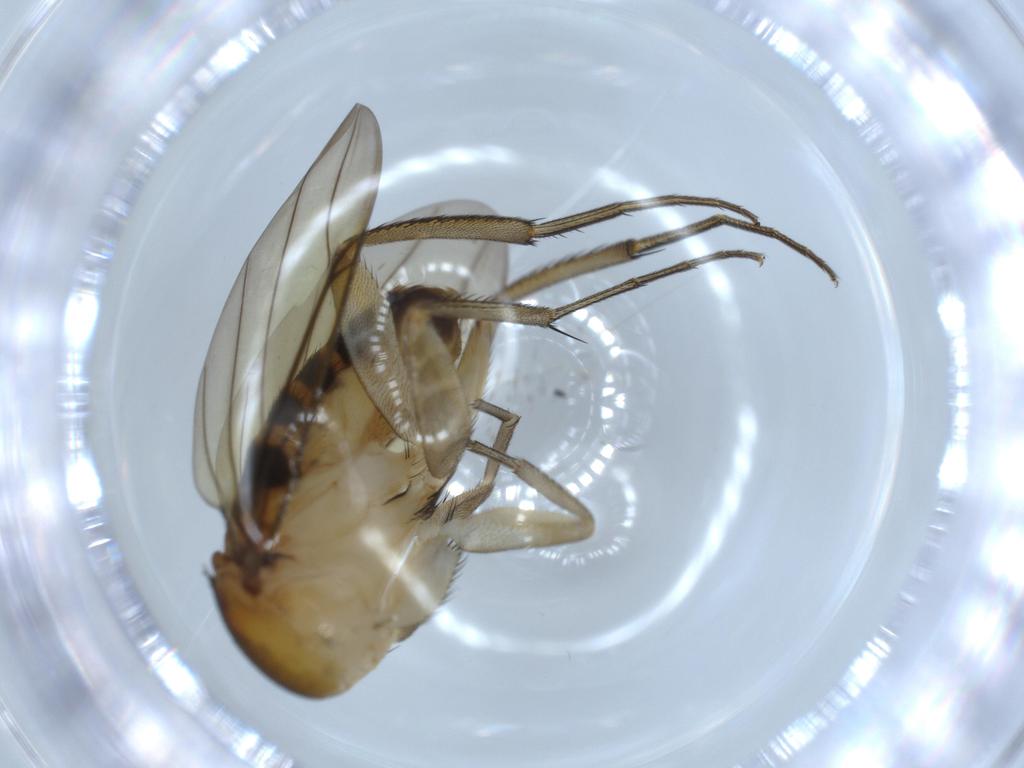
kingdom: Animalia
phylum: Arthropoda
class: Insecta
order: Diptera
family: Phoridae
